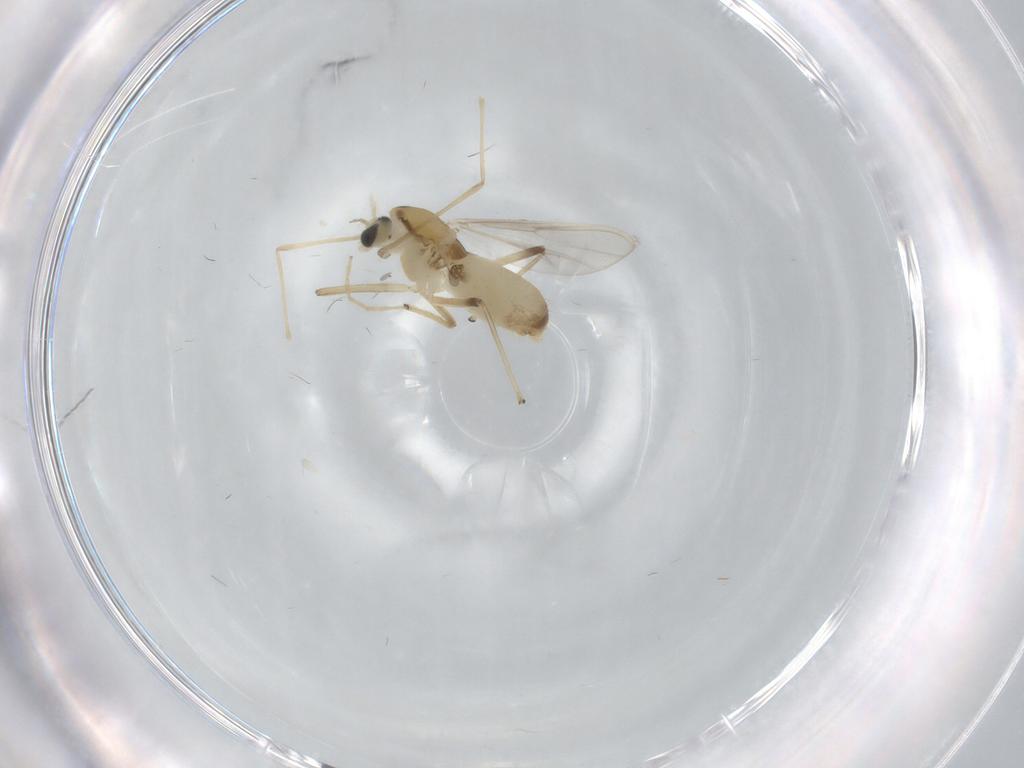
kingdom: Animalia
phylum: Arthropoda
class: Insecta
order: Diptera
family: Chironomidae
